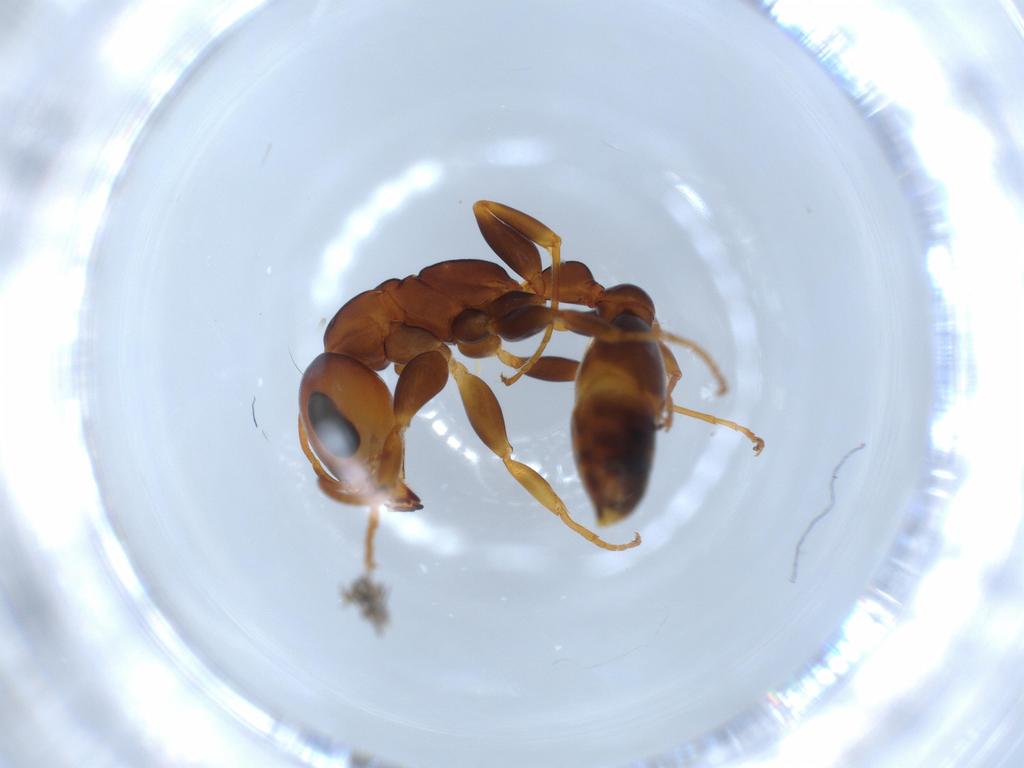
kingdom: Animalia
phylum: Arthropoda
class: Insecta
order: Hymenoptera
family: Formicidae
